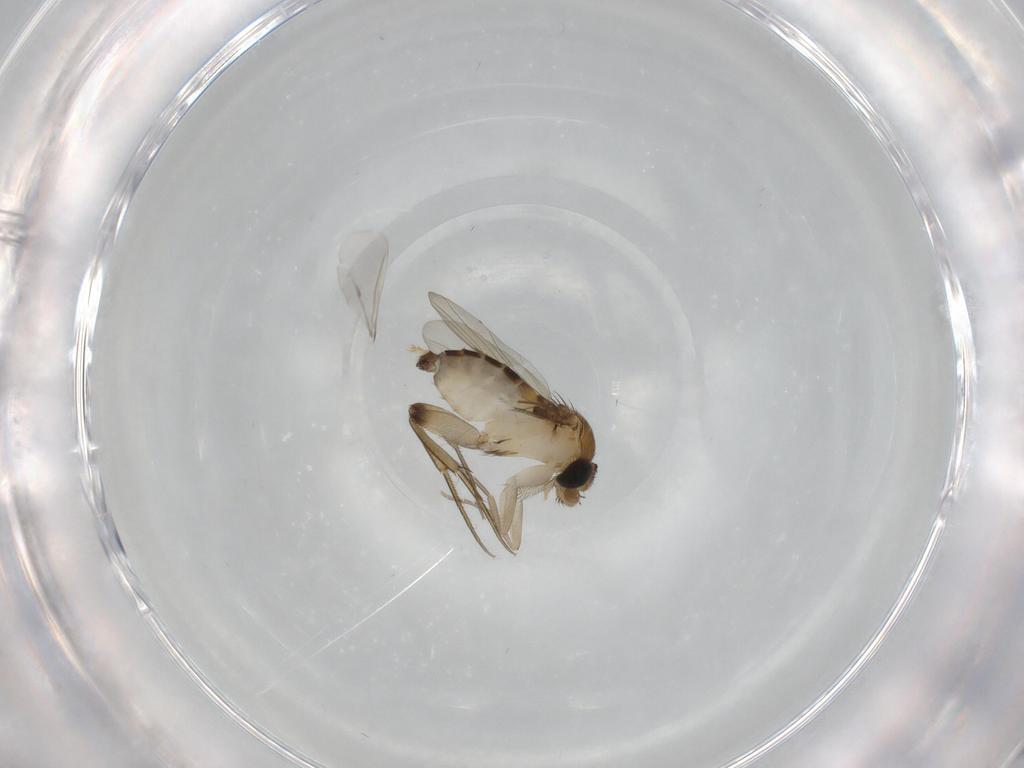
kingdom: Animalia
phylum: Arthropoda
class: Insecta
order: Diptera
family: Phoridae
